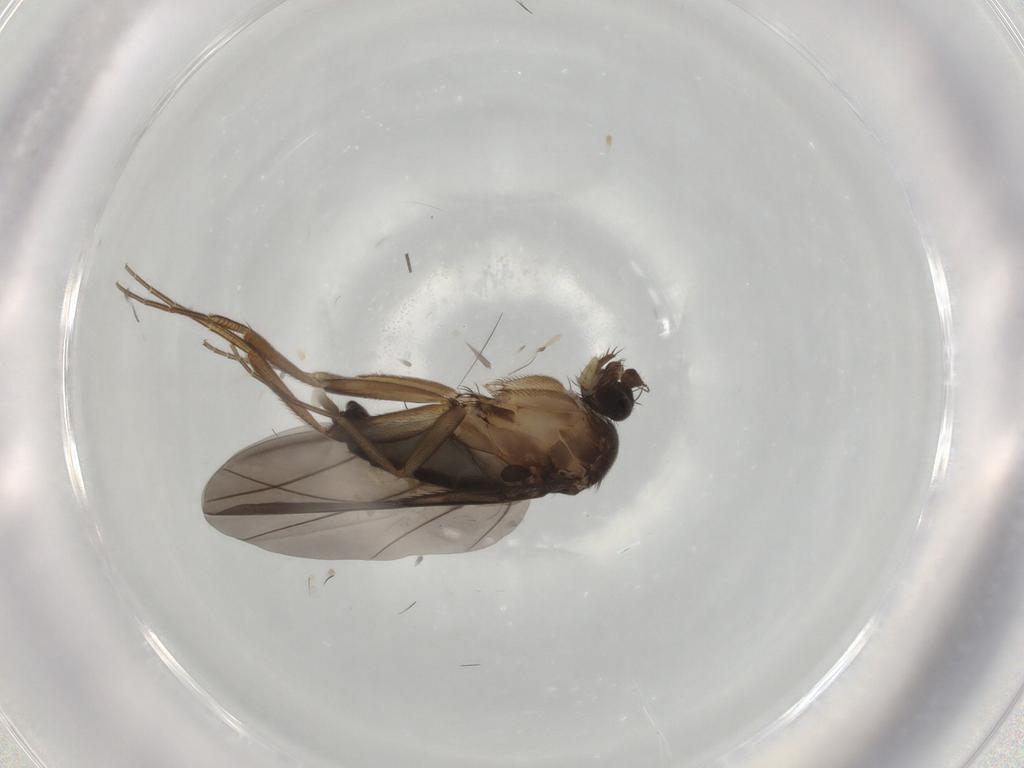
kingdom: Animalia
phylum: Arthropoda
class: Insecta
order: Diptera
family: Phoridae
